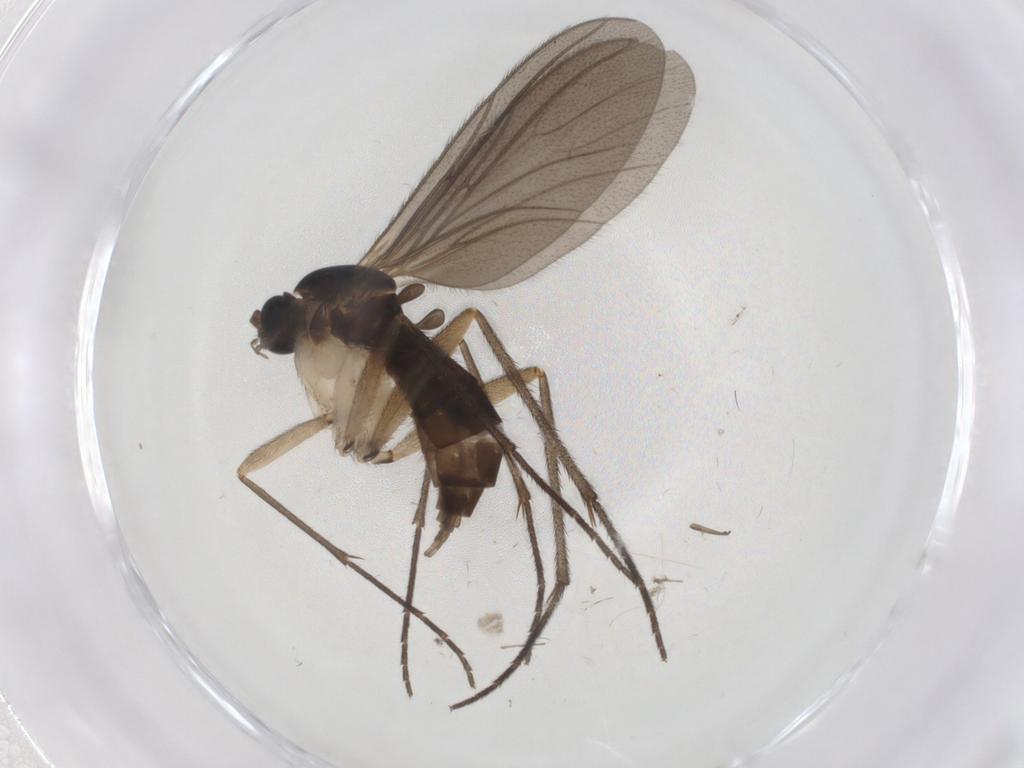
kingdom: Animalia
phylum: Arthropoda
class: Insecta
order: Diptera
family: Sciaridae
